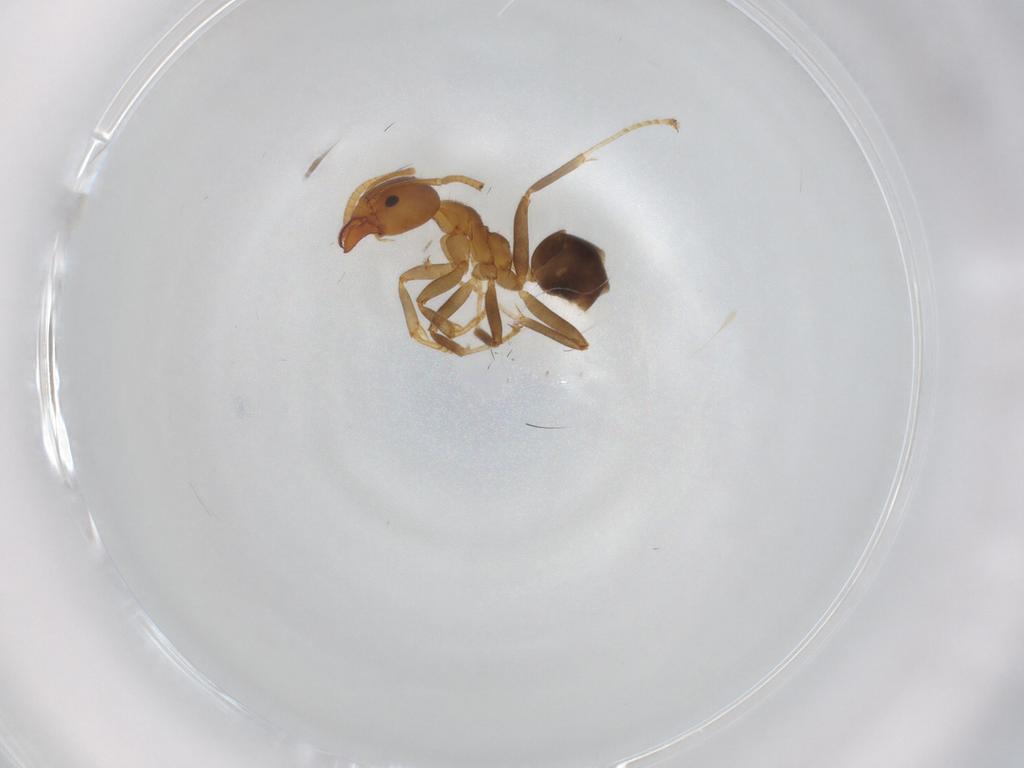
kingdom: Animalia
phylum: Arthropoda
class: Insecta
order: Hymenoptera
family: Formicidae
